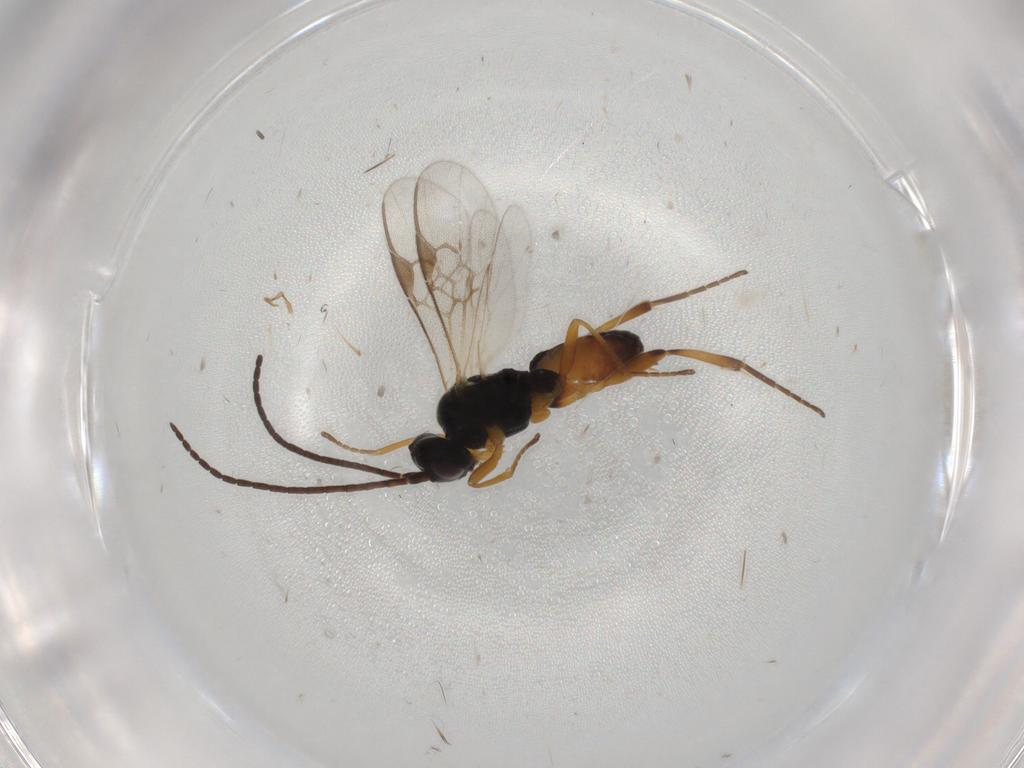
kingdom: Animalia
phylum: Arthropoda
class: Insecta
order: Hymenoptera
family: Braconidae
